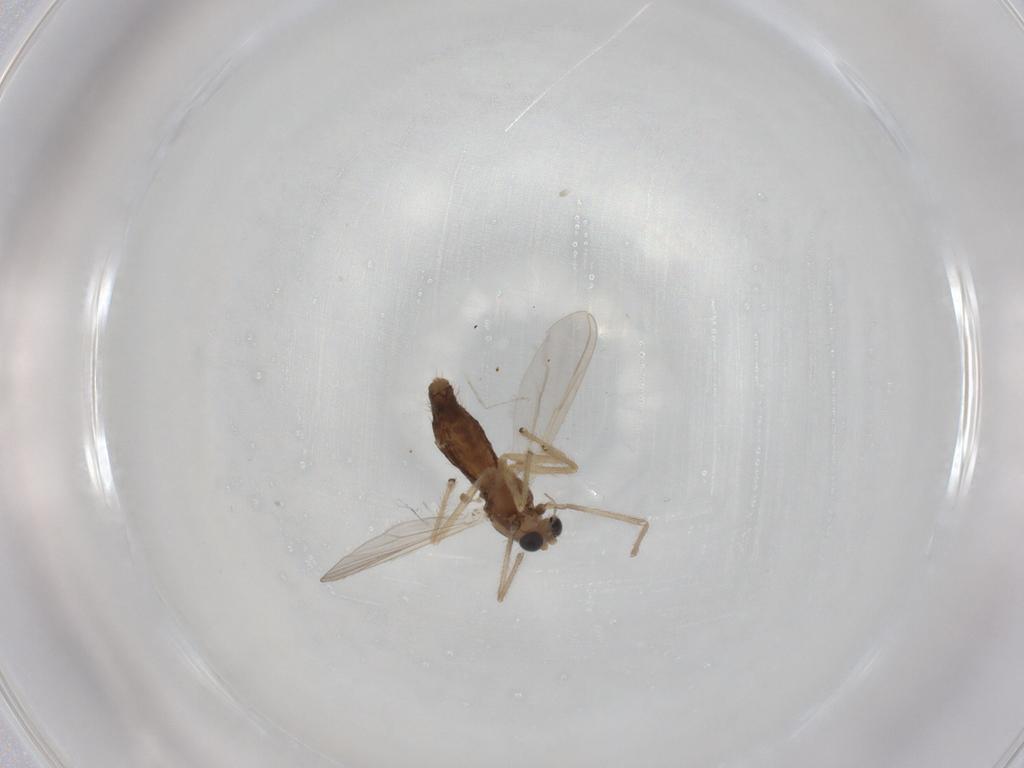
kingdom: Animalia
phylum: Arthropoda
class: Insecta
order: Diptera
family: Chironomidae
